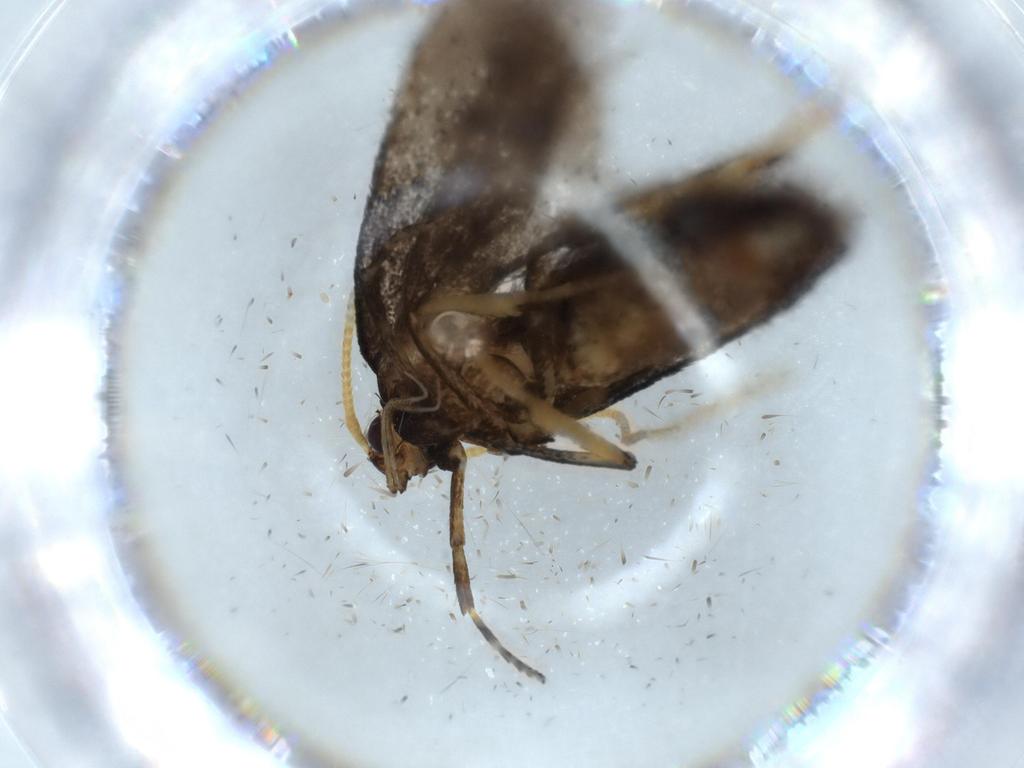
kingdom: Animalia
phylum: Arthropoda
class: Insecta
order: Lepidoptera
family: Lecithoceridae
